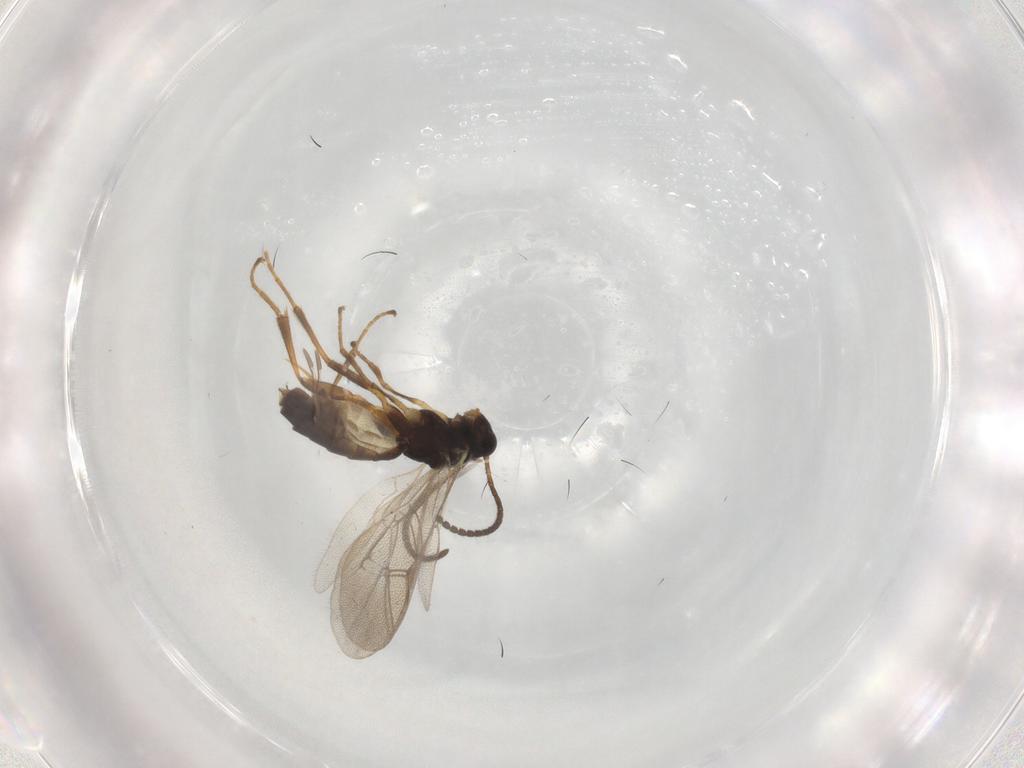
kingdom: Animalia
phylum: Arthropoda
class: Insecta
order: Hymenoptera
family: Ichneumonidae
